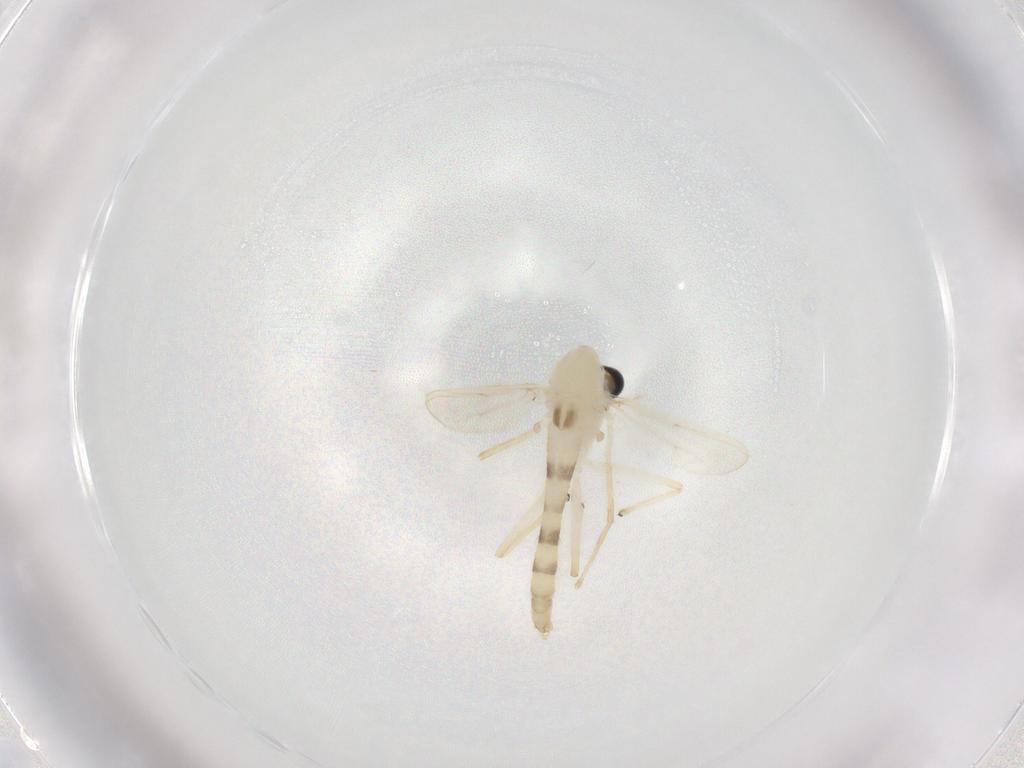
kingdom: Animalia
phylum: Arthropoda
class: Insecta
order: Diptera
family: Chironomidae
